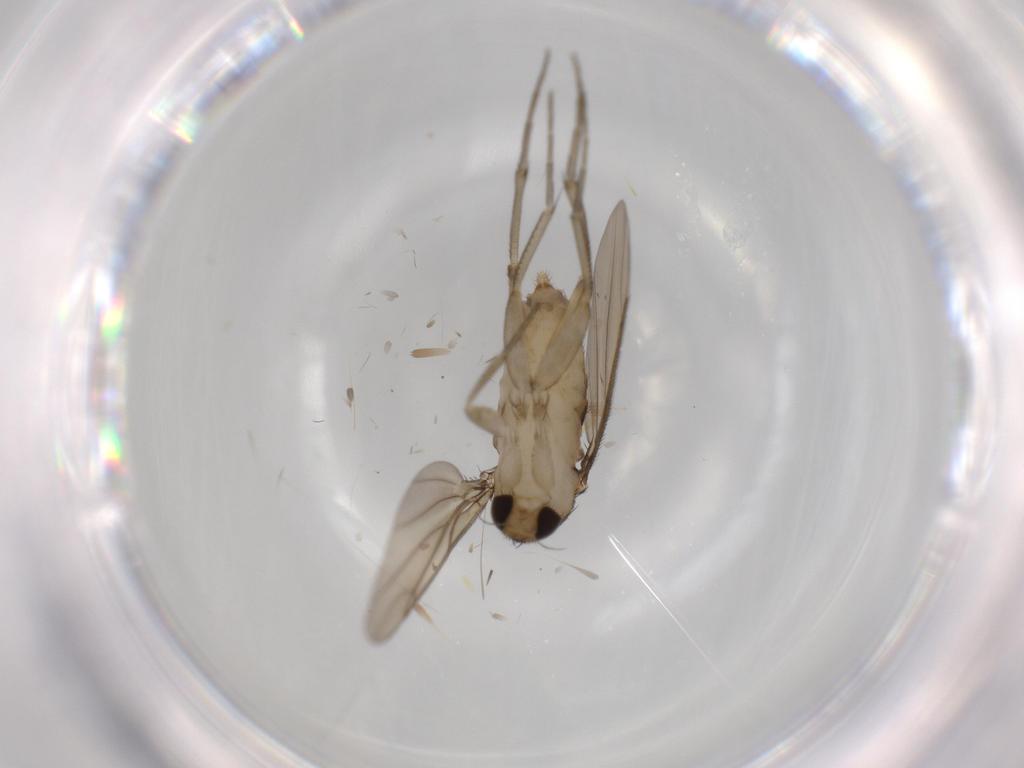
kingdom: Animalia
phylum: Arthropoda
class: Insecta
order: Diptera
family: Phoridae
